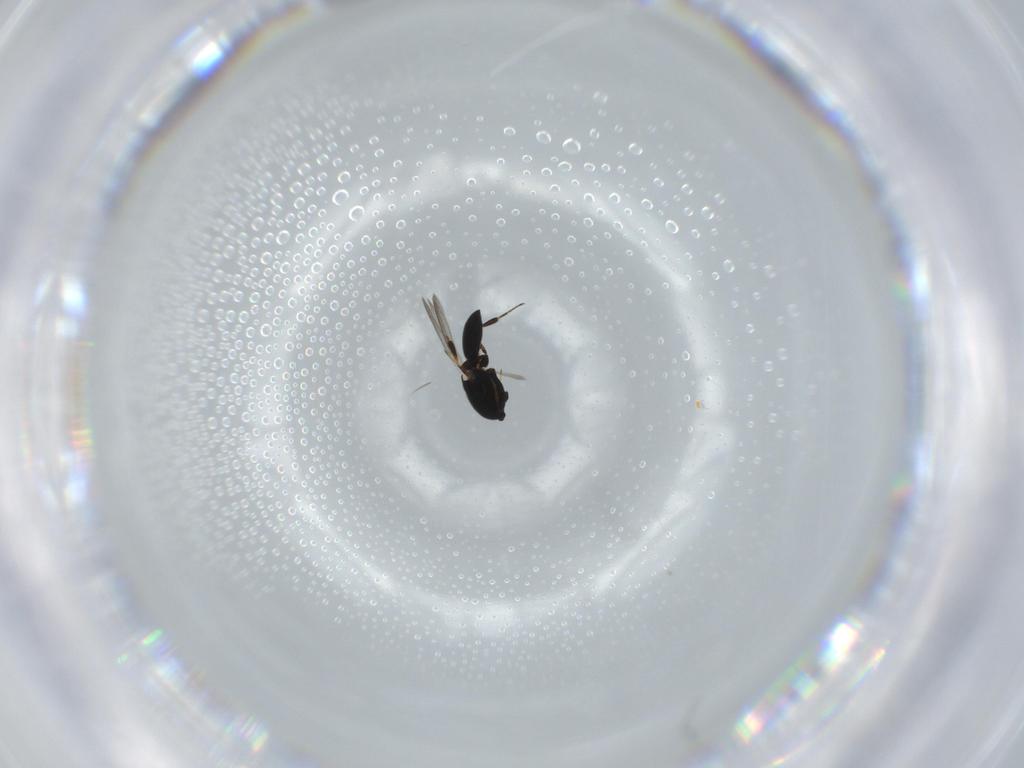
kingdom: Animalia
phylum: Arthropoda
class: Insecta
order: Hymenoptera
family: Platygastridae
